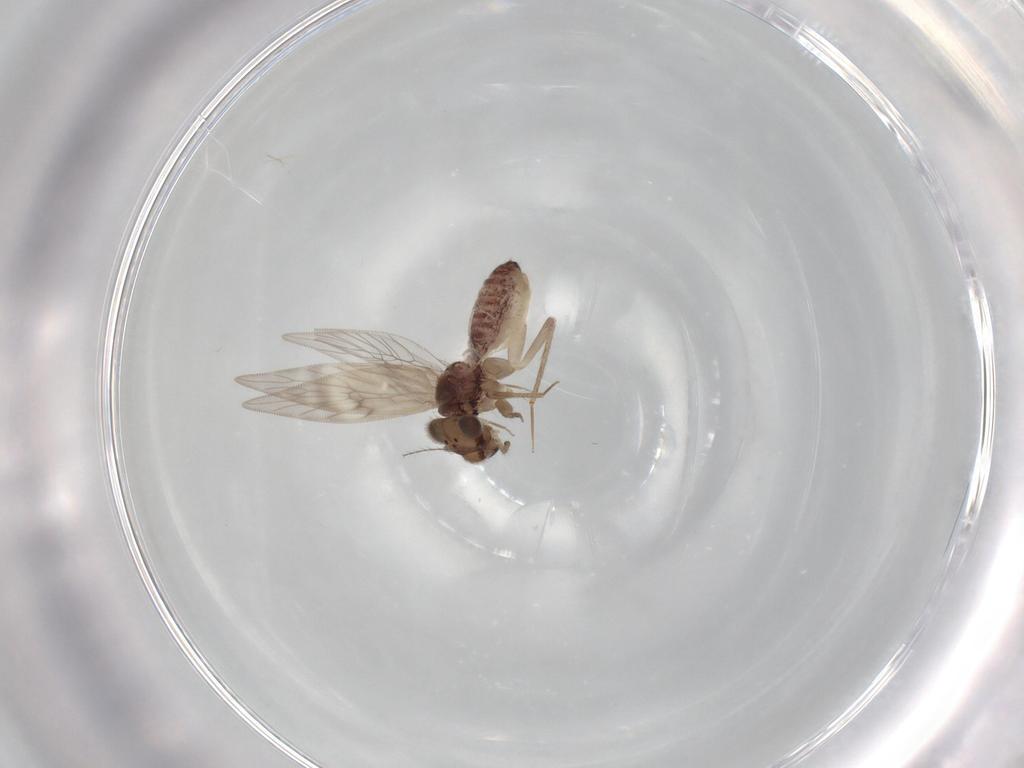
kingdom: Animalia
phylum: Arthropoda
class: Insecta
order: Psocodea
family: Lepidopsocidae
